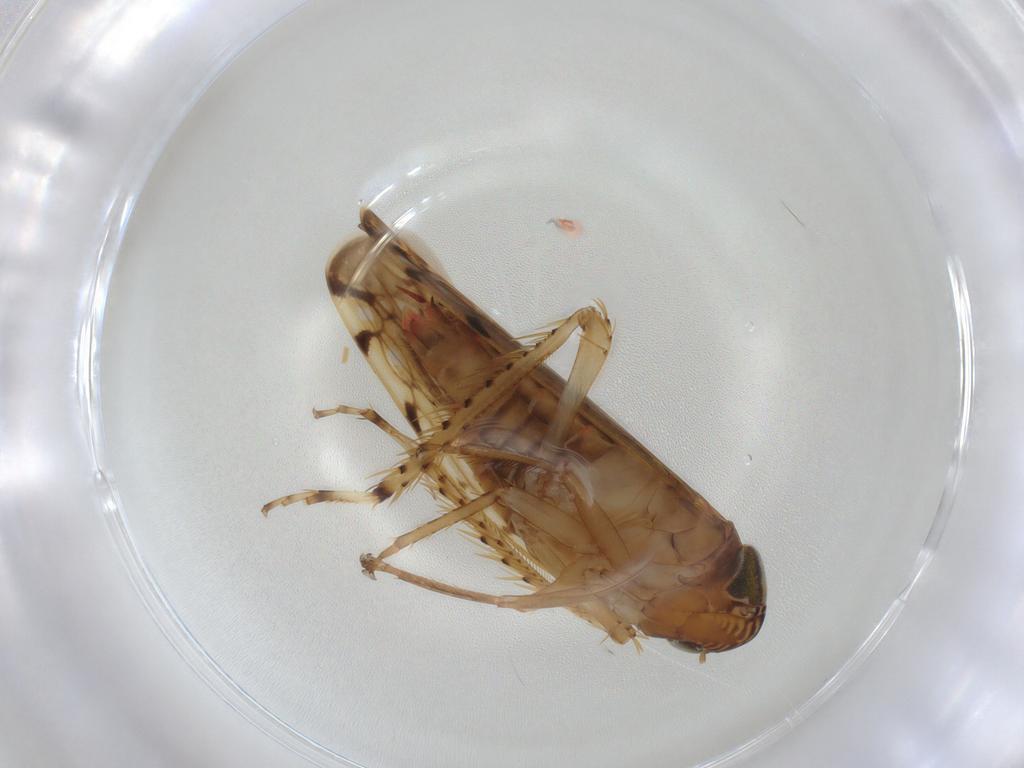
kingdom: Animalia
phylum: Arthropoda
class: Insecta
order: Hemiptera
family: Cicadellidae
